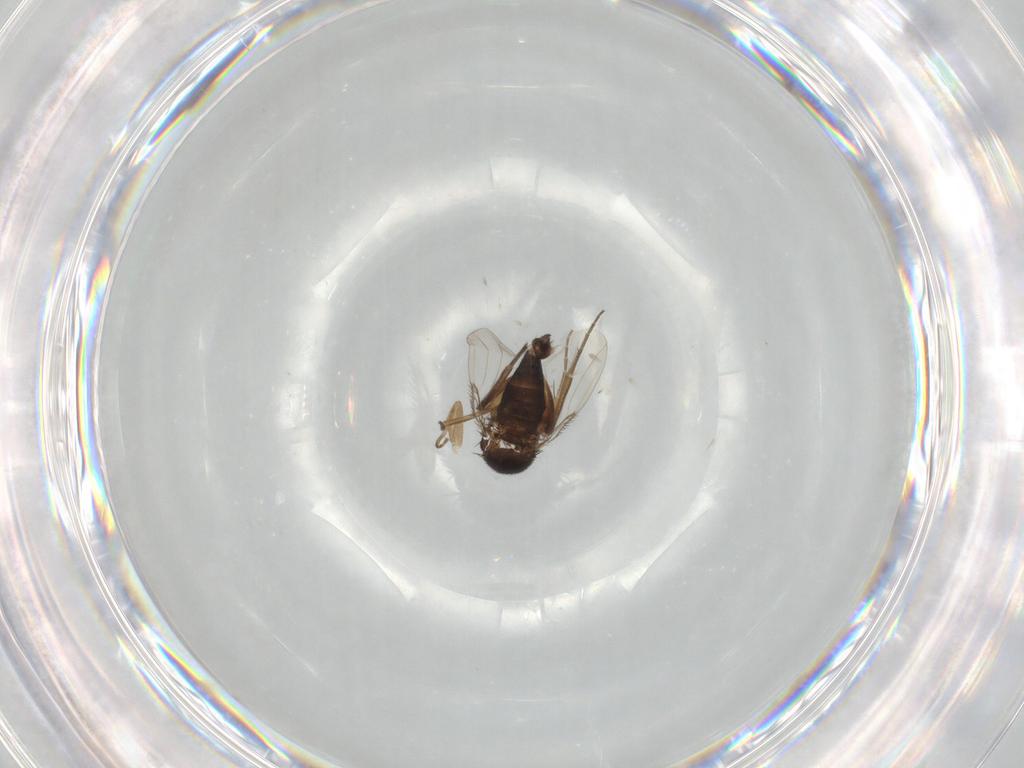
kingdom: Animalia
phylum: Arthropoda
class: Insecta
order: Diptera
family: Phoridae
